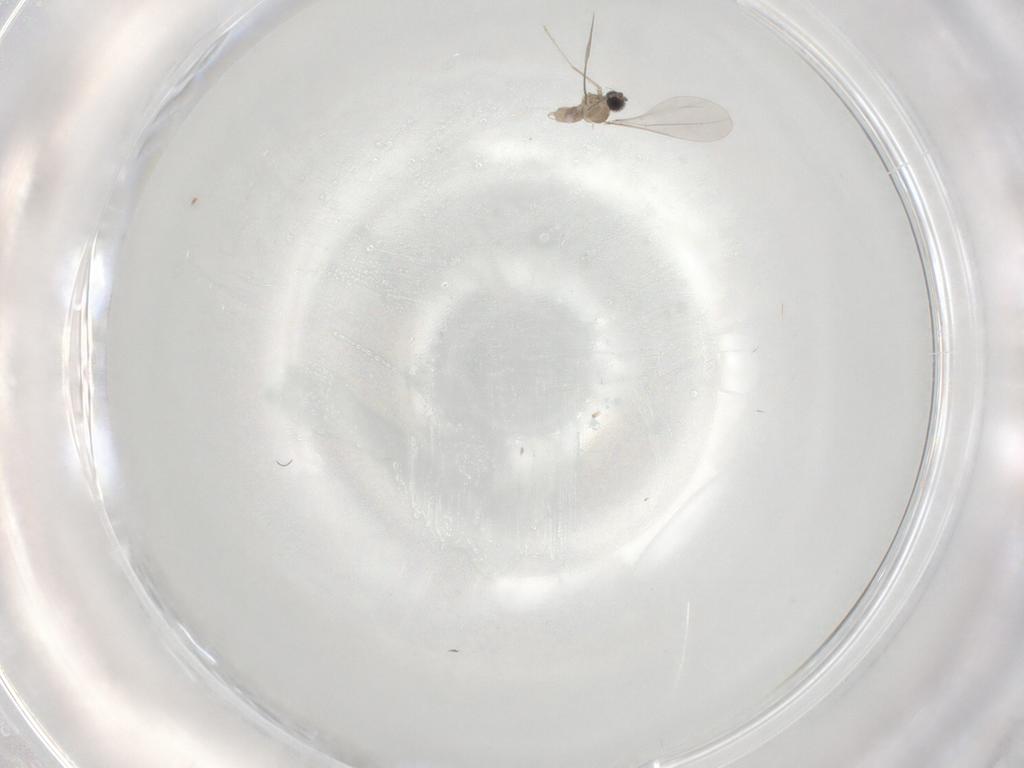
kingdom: Animalia
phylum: Arthropoda
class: Insecta
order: Diptera
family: Cecidomyiidae
